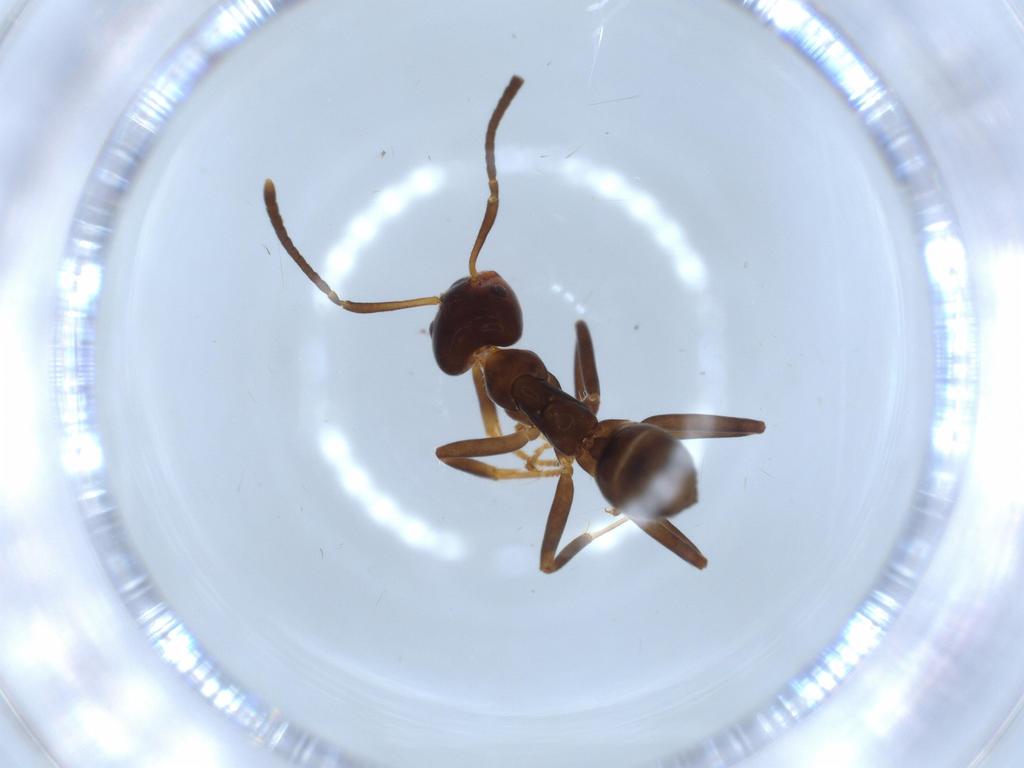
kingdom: Animalia
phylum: Arthropoda
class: Insecta
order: Hymenoptera
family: Formicidae
